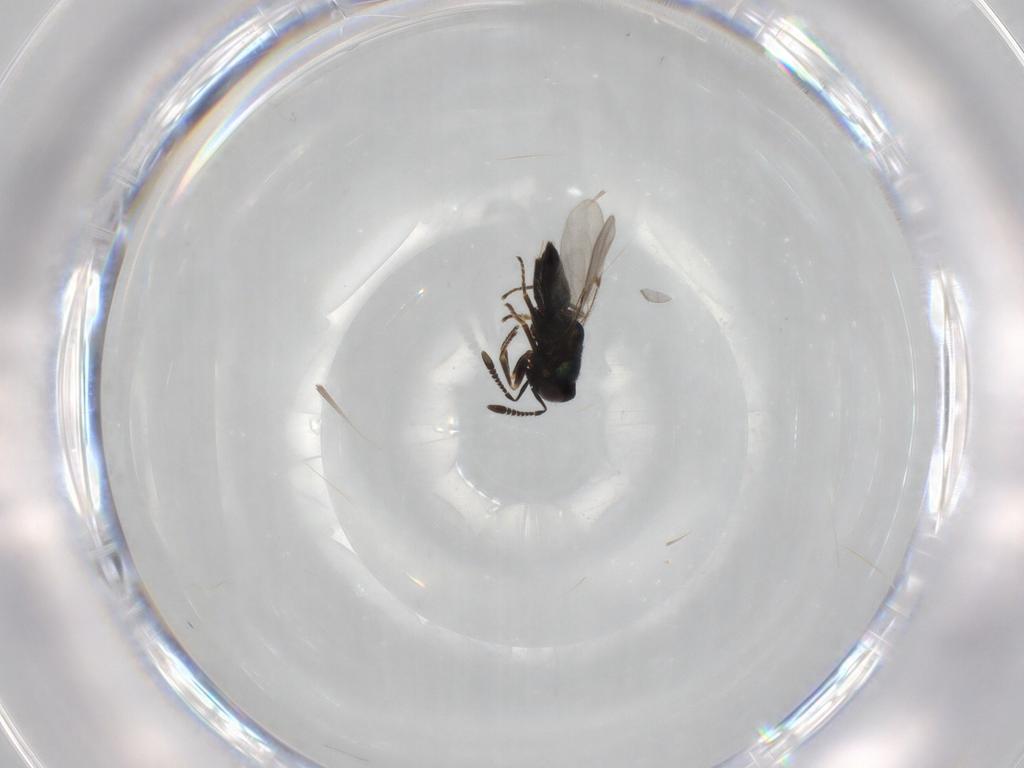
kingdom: Animalia
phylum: Arthropoda
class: Insecta
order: Hymenoptera
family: Encyrtidae
